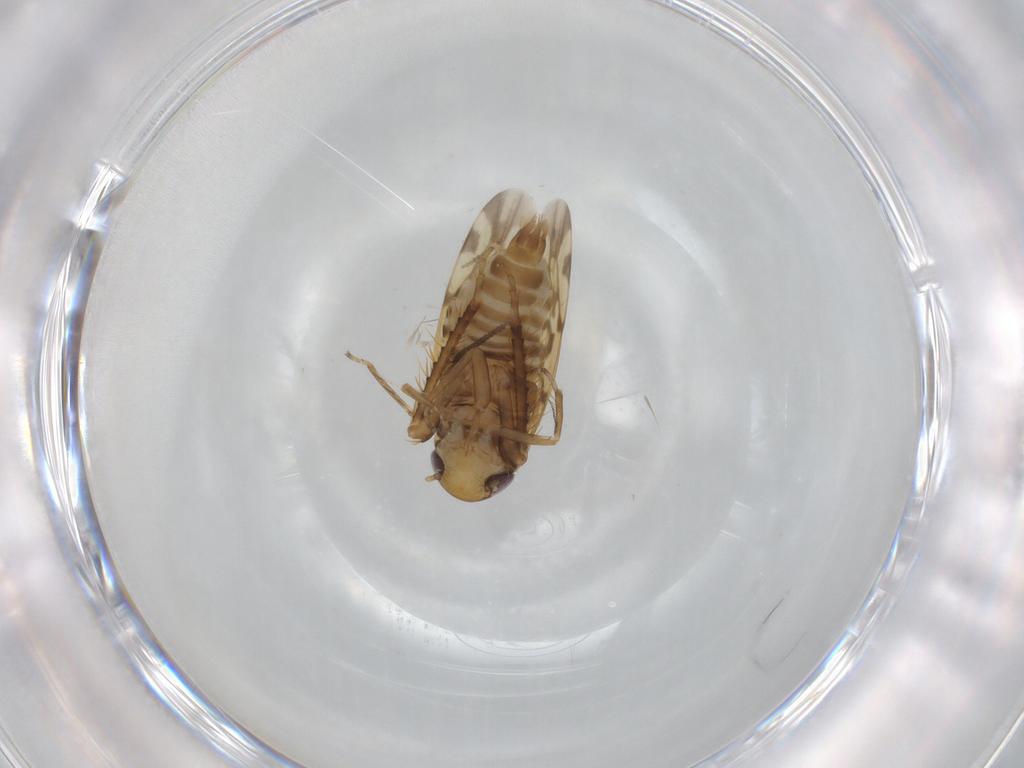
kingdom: Animalia
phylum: Arthropoda
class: Insecta
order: Hemiptera
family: Cicadellidae
